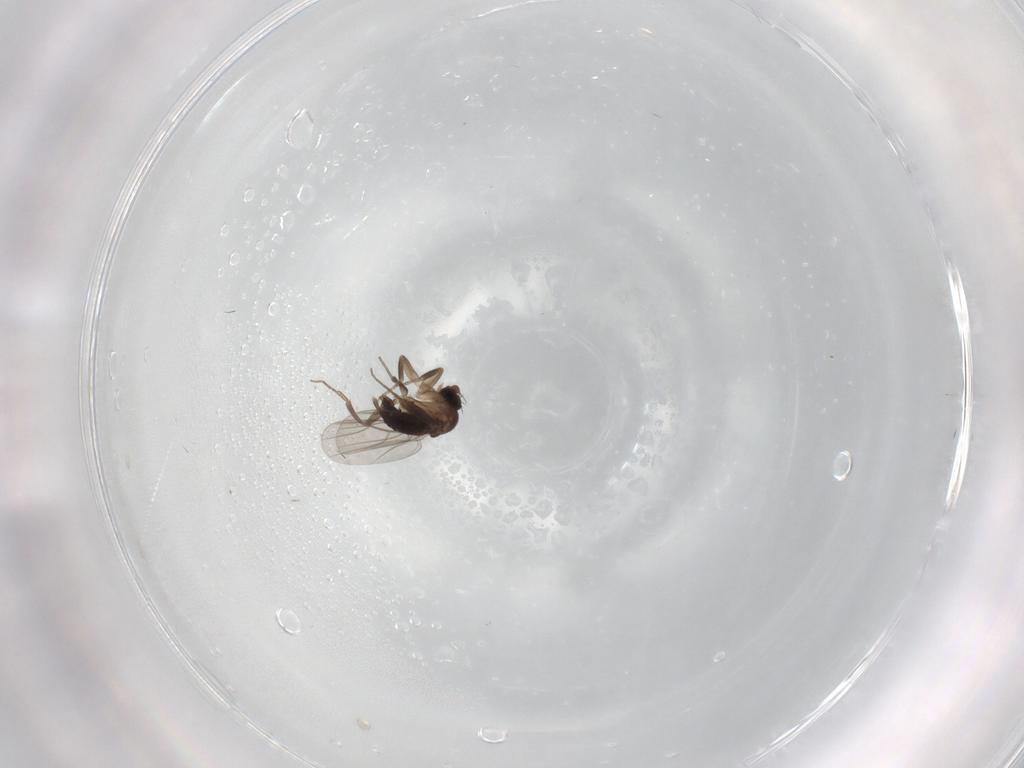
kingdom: Animalia
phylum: Arthropoda
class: Insecta
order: Diptera
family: Phoridae
